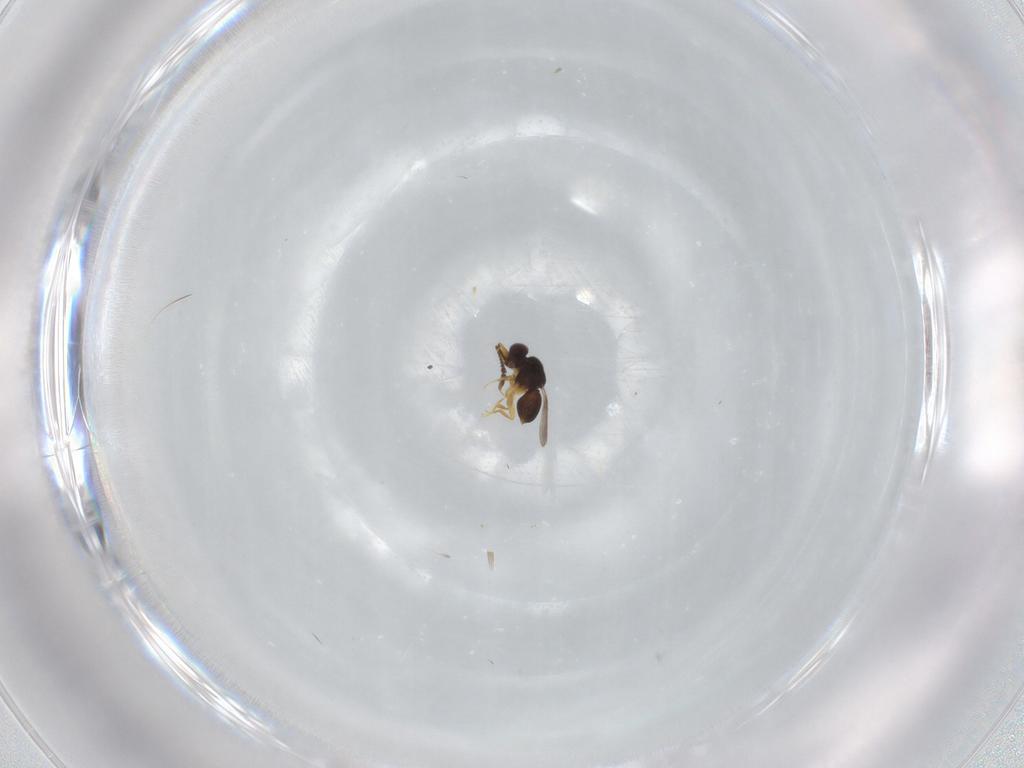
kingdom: Animalia
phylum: Arthropoda
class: Insecta
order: Hymenoptera
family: Ceraphronidae
